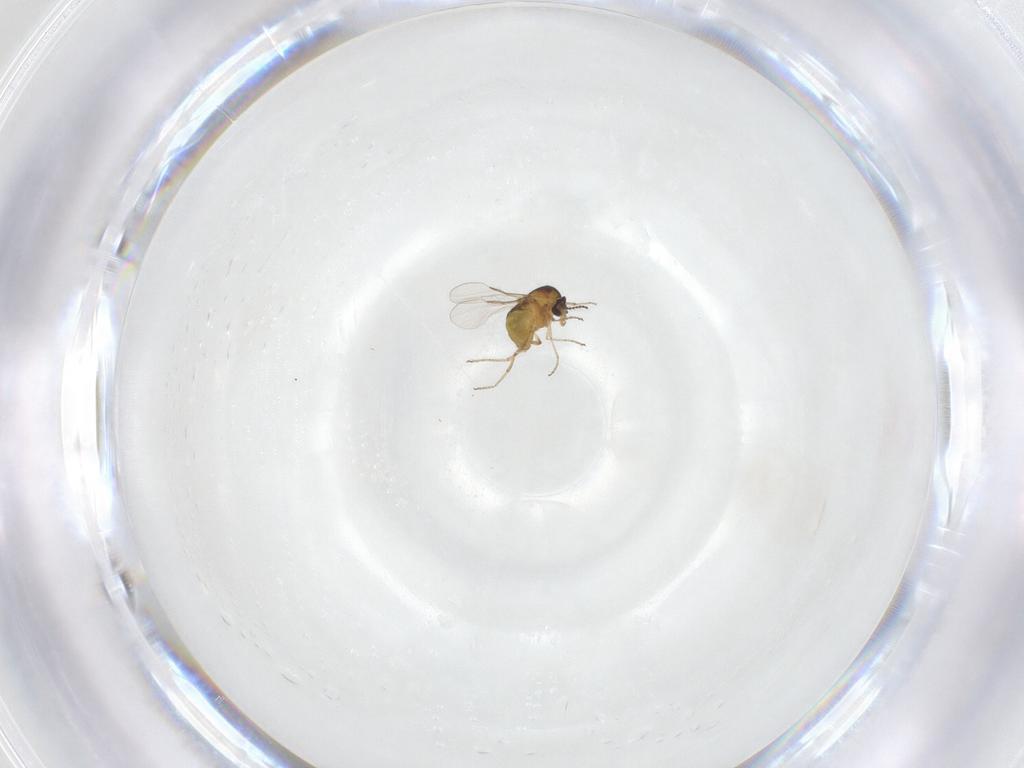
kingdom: Animalia
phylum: Arthropoda
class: Insecta
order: Diptera
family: Ceratopogonidae
